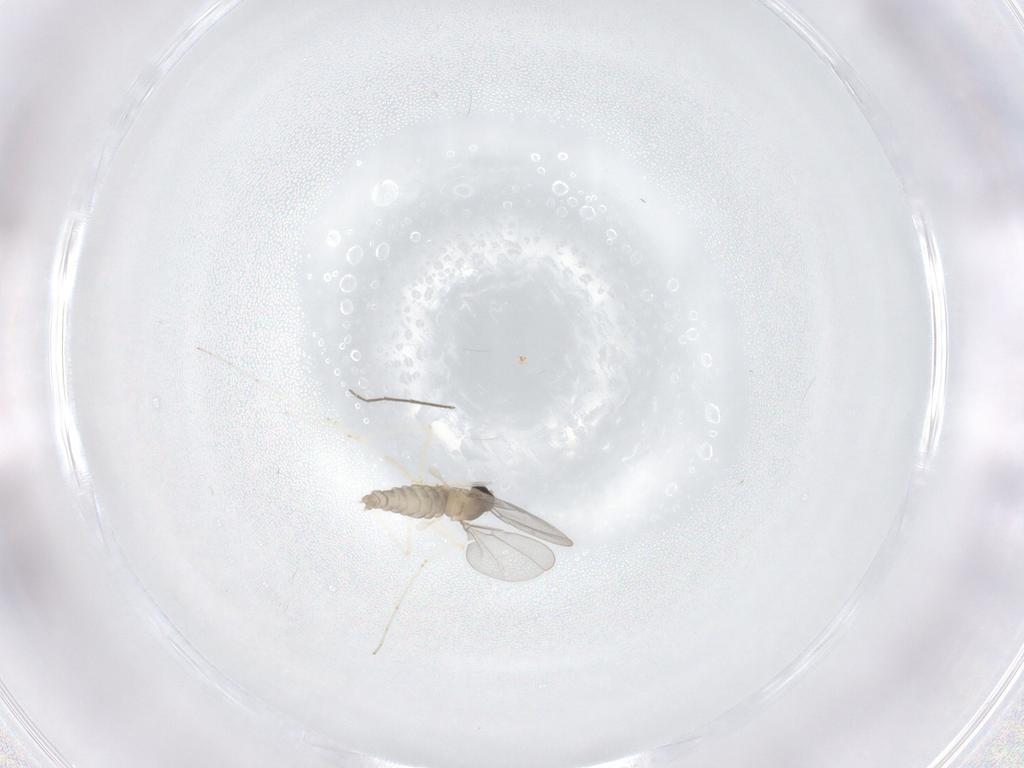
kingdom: Animalia
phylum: Arthropoda
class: Insecta
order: Diptera
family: Cecidomyiidae
